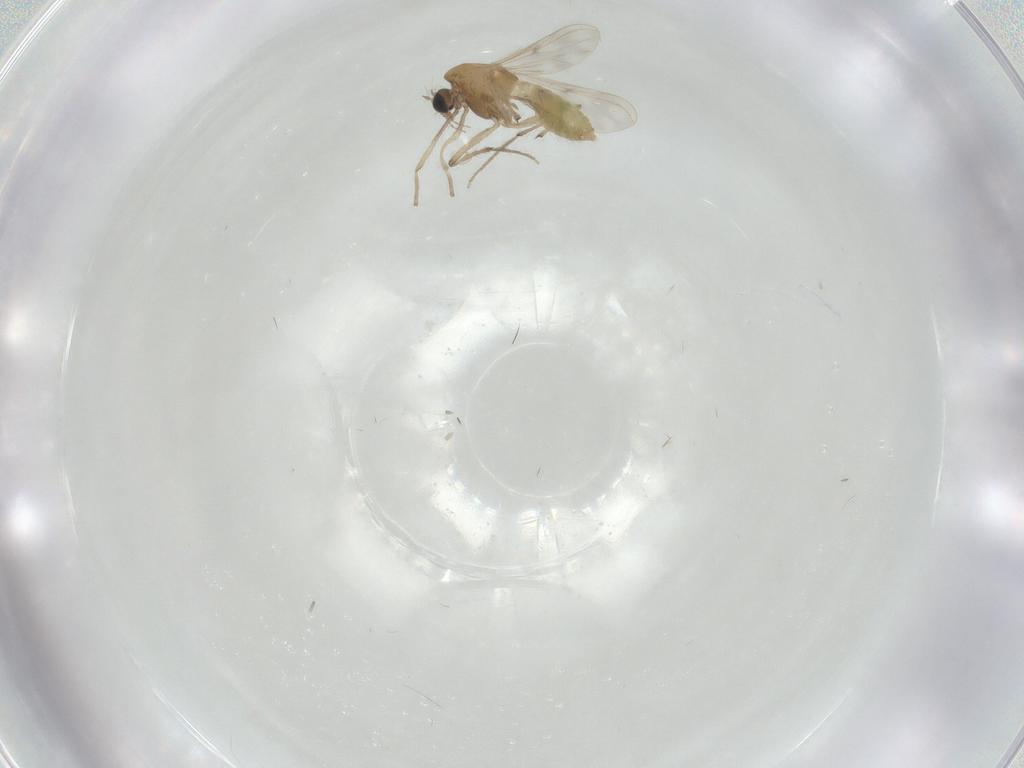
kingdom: Animalia
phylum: Arthropoda
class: Insecta
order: Diptera
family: Chironomidae
